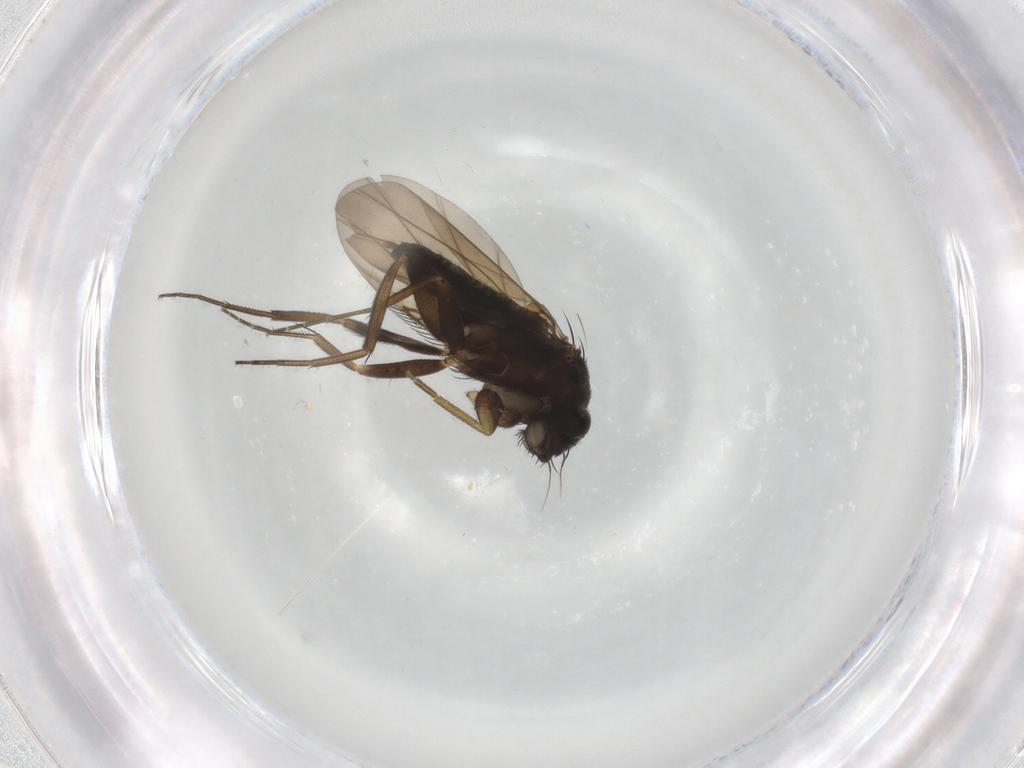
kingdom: Animalia
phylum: Arthropoda
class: Insecta
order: Diptera
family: Phoridae
